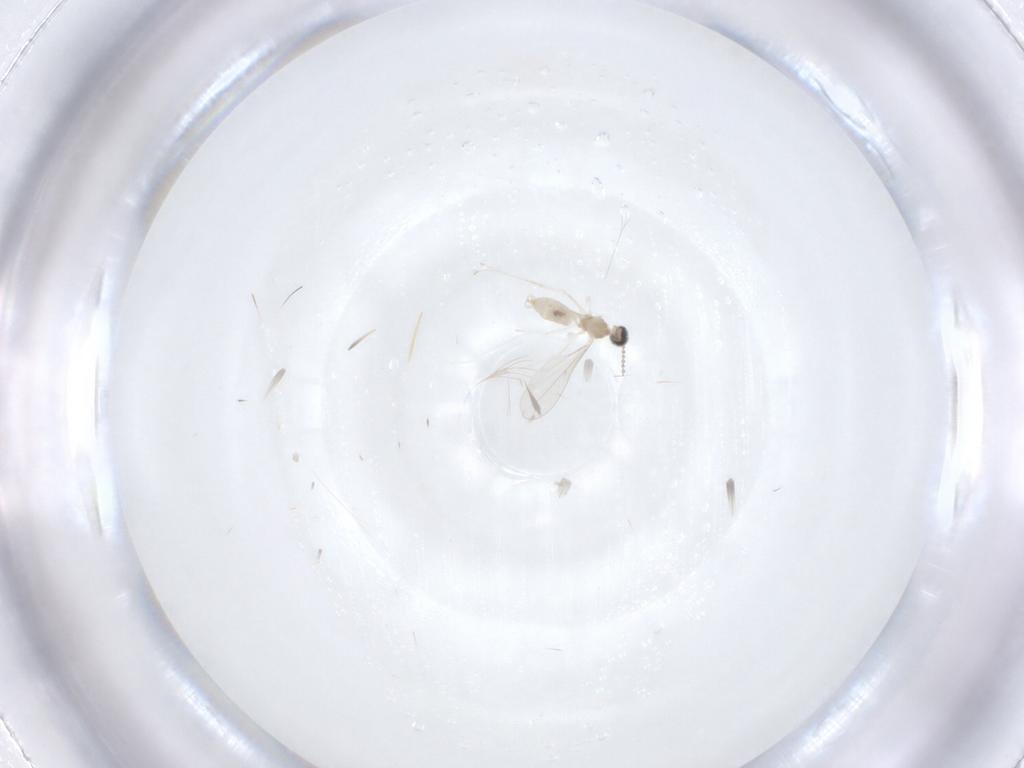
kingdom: Animalia
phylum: Arthropoda
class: Insecta
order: Diptera
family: Cecidomyiidae
